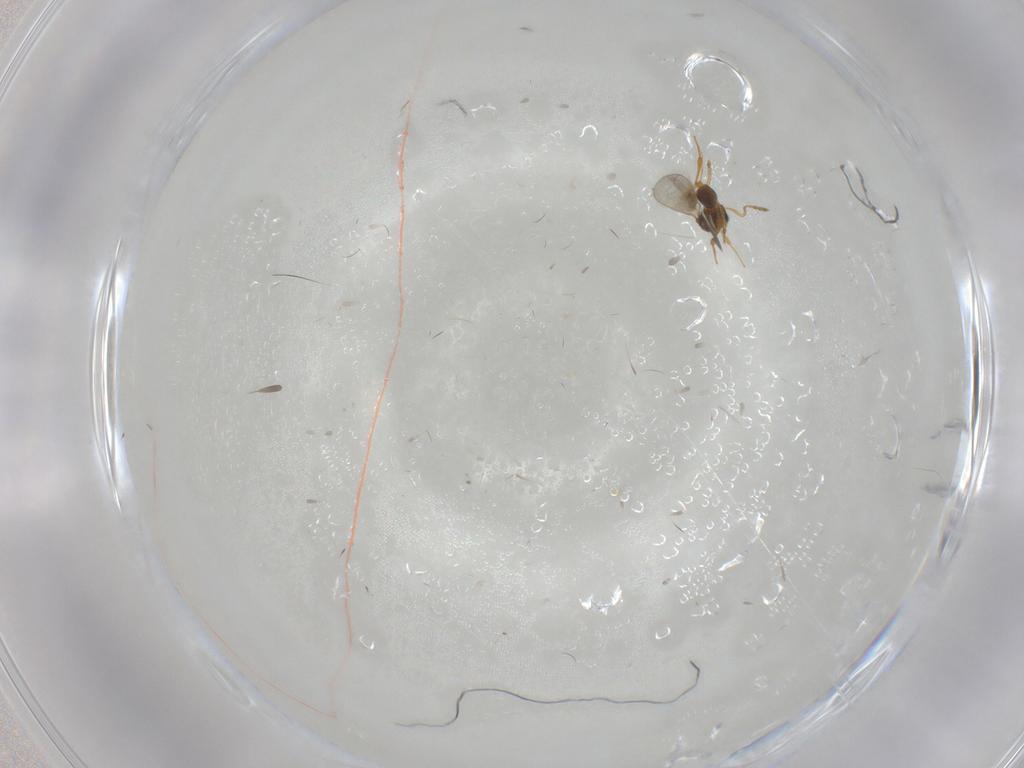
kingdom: Animalia
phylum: Arthropoda
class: Insecta
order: Hymenoptera
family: Platygastridae
